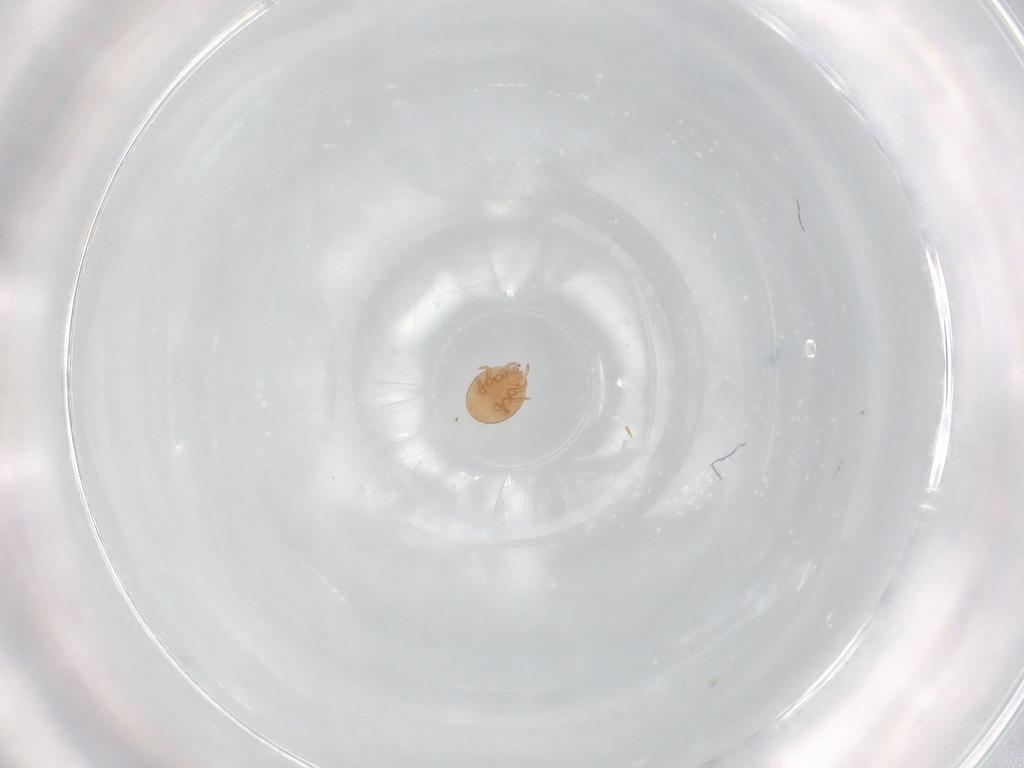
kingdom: Animalia
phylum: Arthropoda
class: Arachnida
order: Mesostigmata
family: Trematuridae
